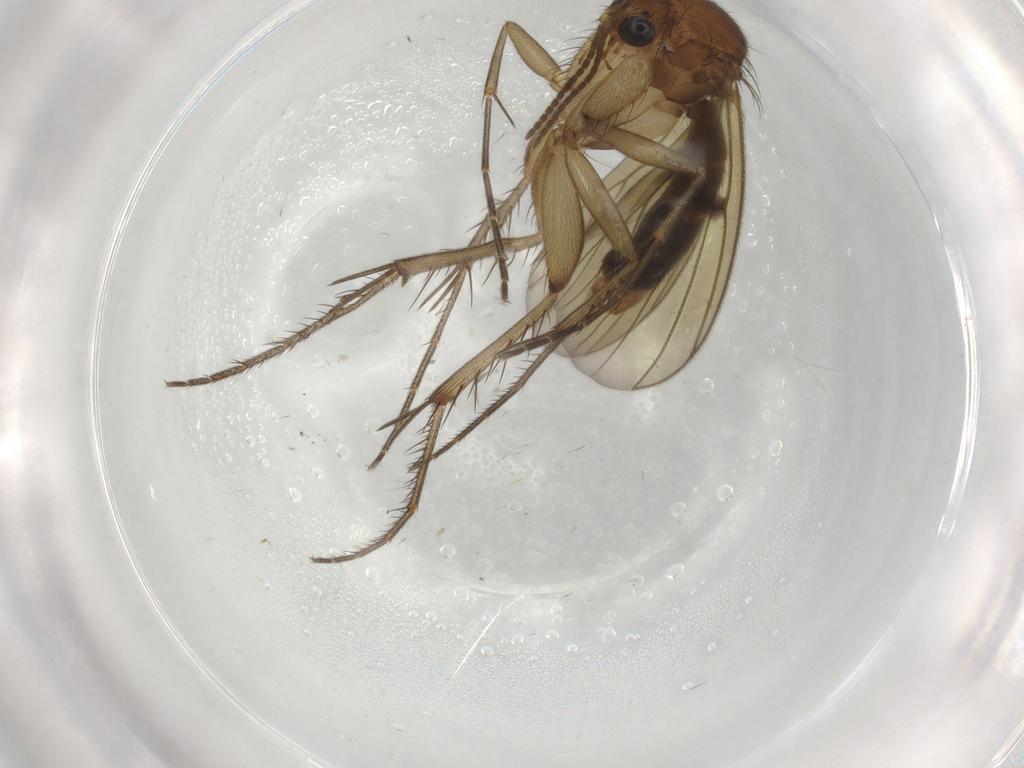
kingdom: Animalia
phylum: Arthropoda
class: Insecta
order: Diptera
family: Mycetophilidae
